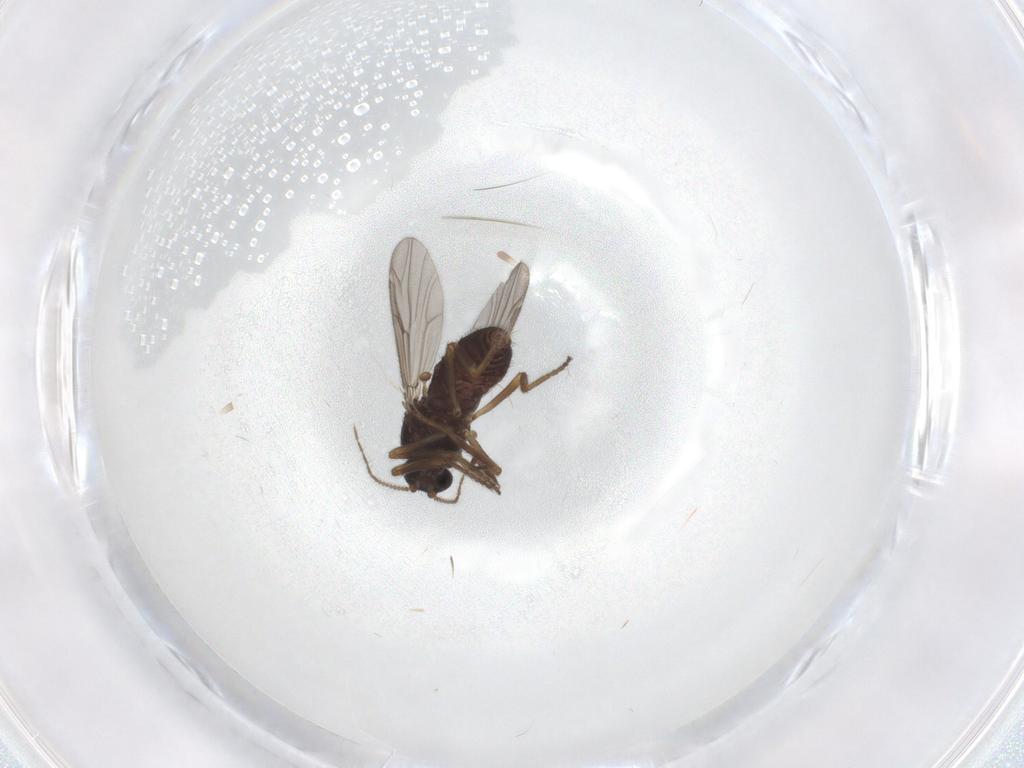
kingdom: Animalia
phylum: Arthropoda
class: Insecta
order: Diptera
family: Ceratopogonidae
